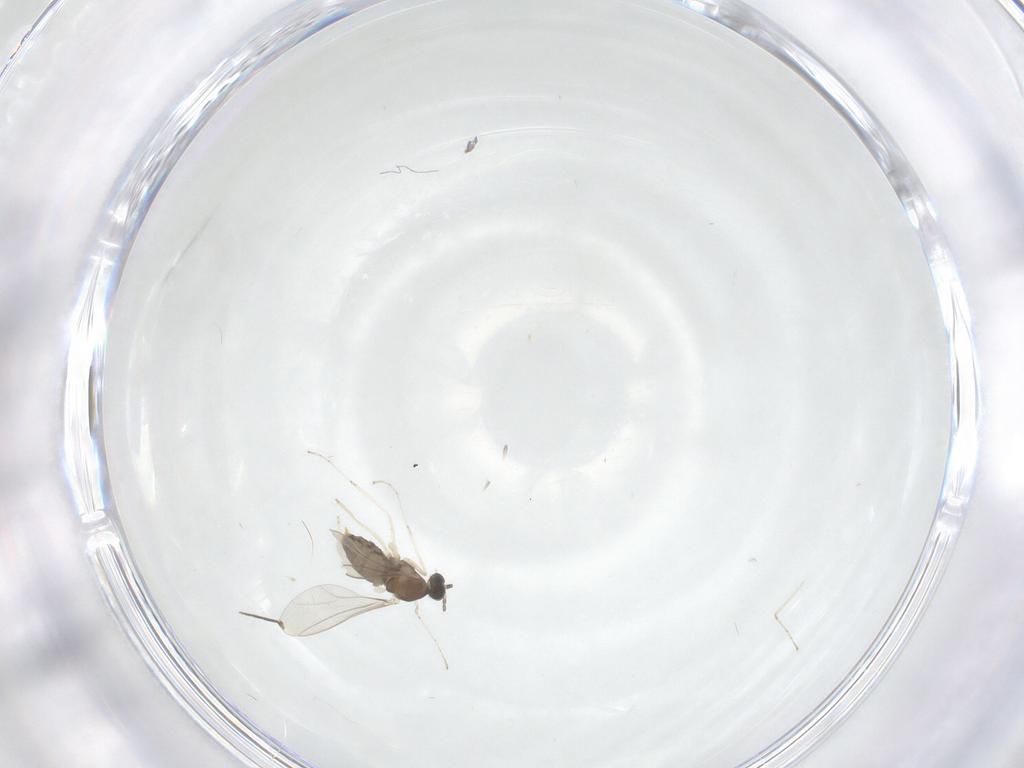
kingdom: Animalia
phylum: Arthropoda
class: Insecta
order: Diptera
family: Cecidomyiidae
